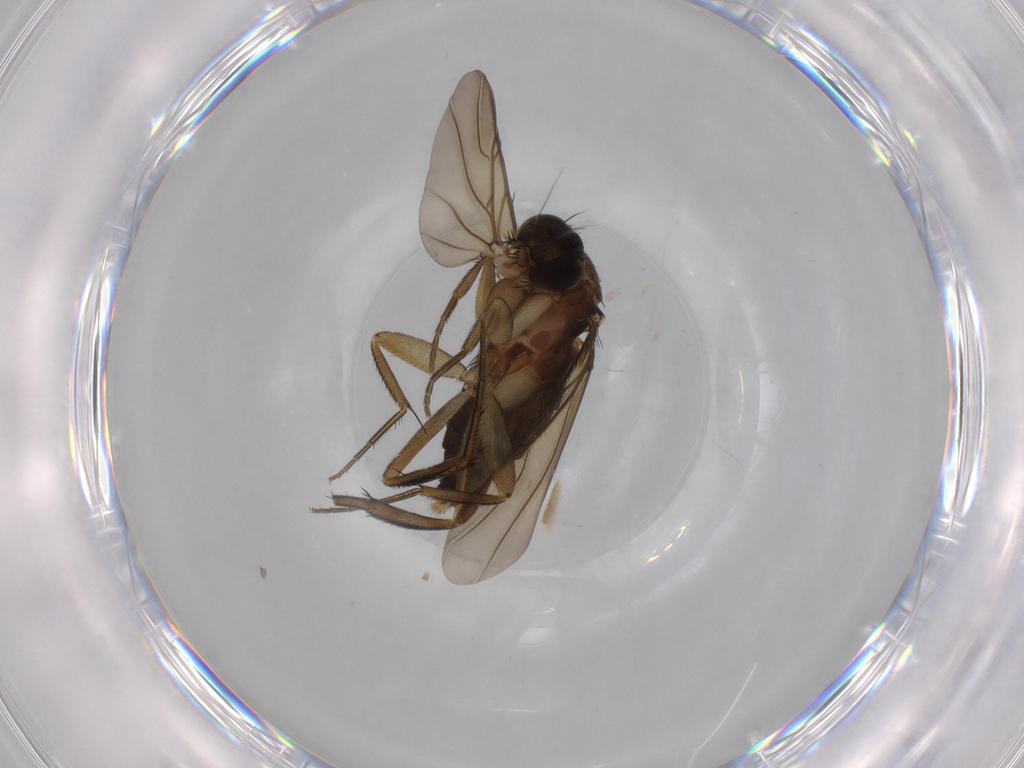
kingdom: Animalia
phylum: Arthropoda
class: Insecta
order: Diptera
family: Phoridae
